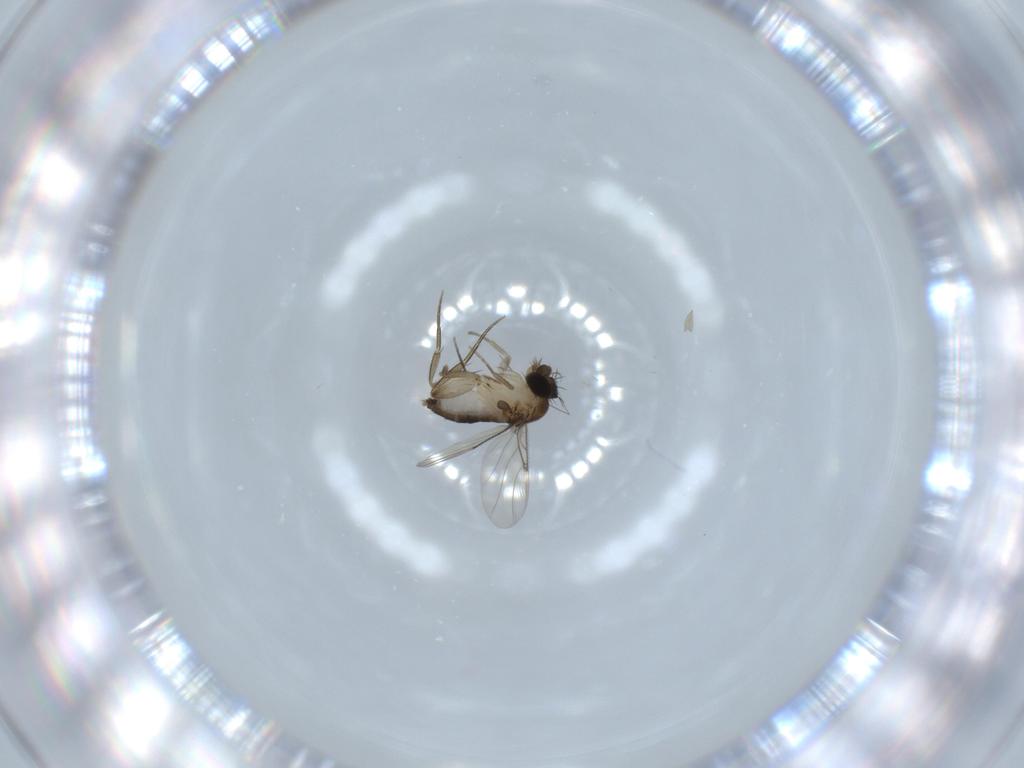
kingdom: Animalia
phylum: Arthropoda
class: Insecta
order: Diptera
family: Phoridae
